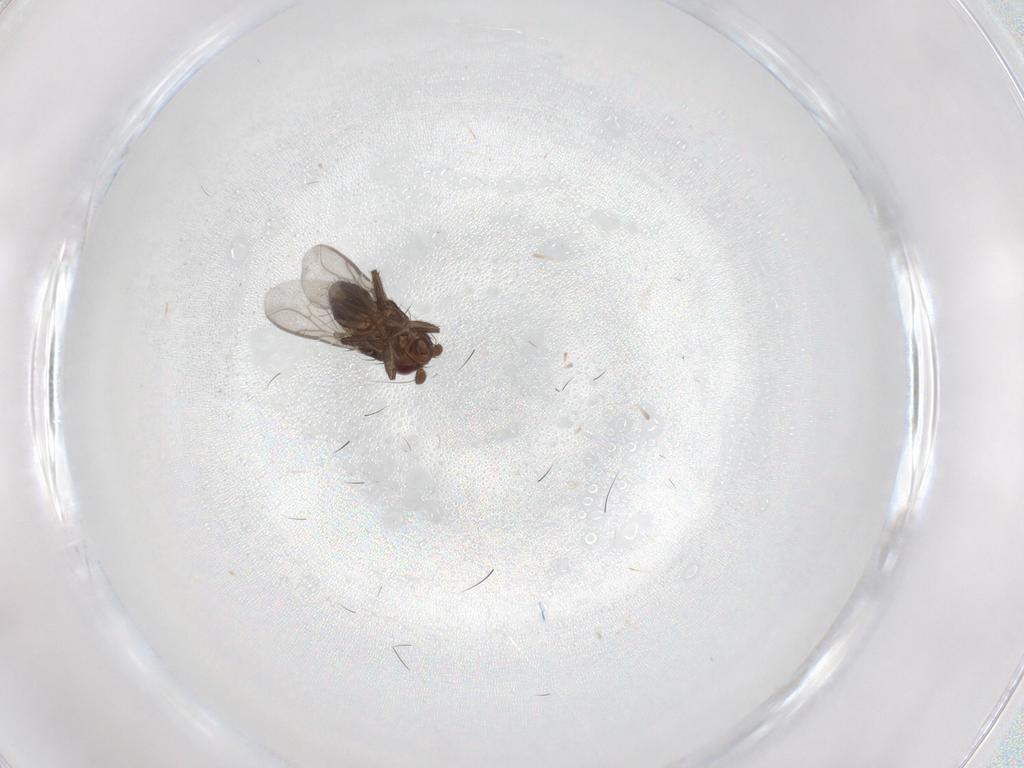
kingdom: Animalia
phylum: Arthropoda
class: Insecta
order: Diptera
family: Sphaeroceridae
